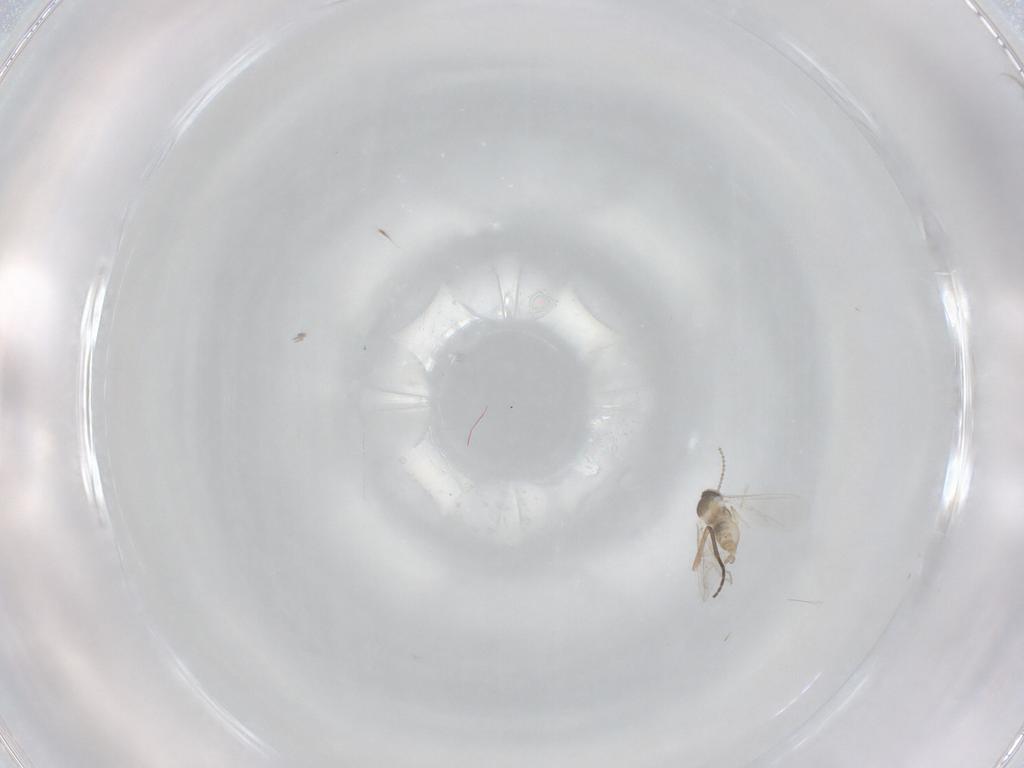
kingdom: Animalia
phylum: Arthropoda
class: Insecta
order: Diptera
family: Cecidomyiidae
